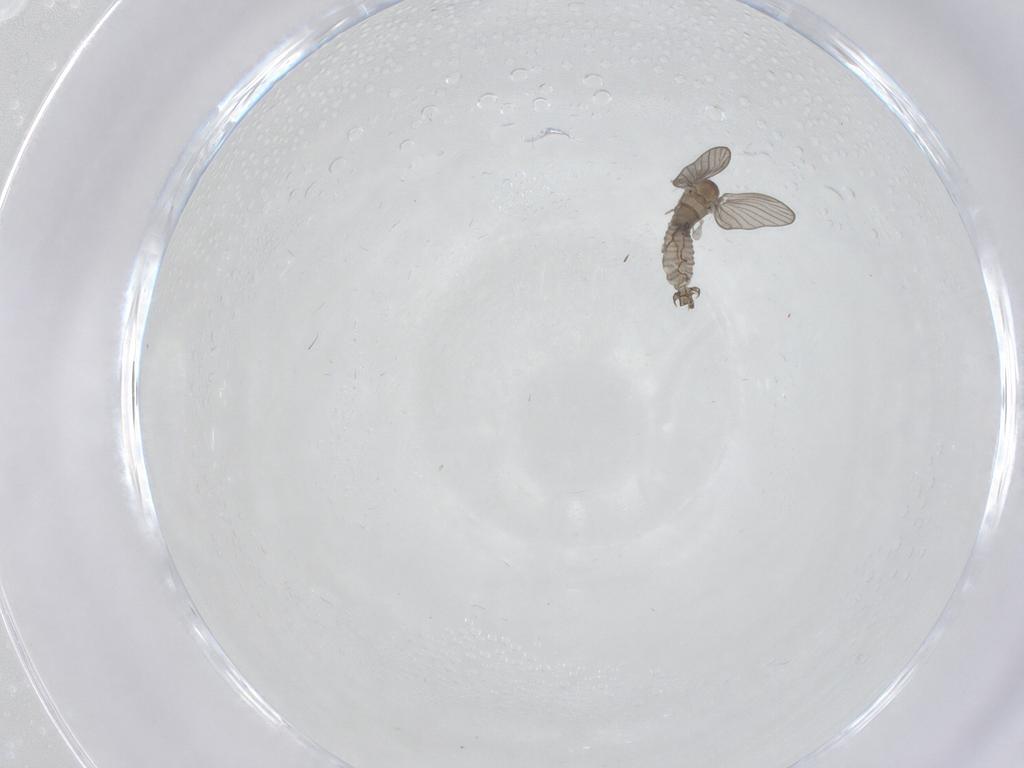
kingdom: Animalia
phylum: Arthropoda
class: Insecta
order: Diptera
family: Psychodidae
